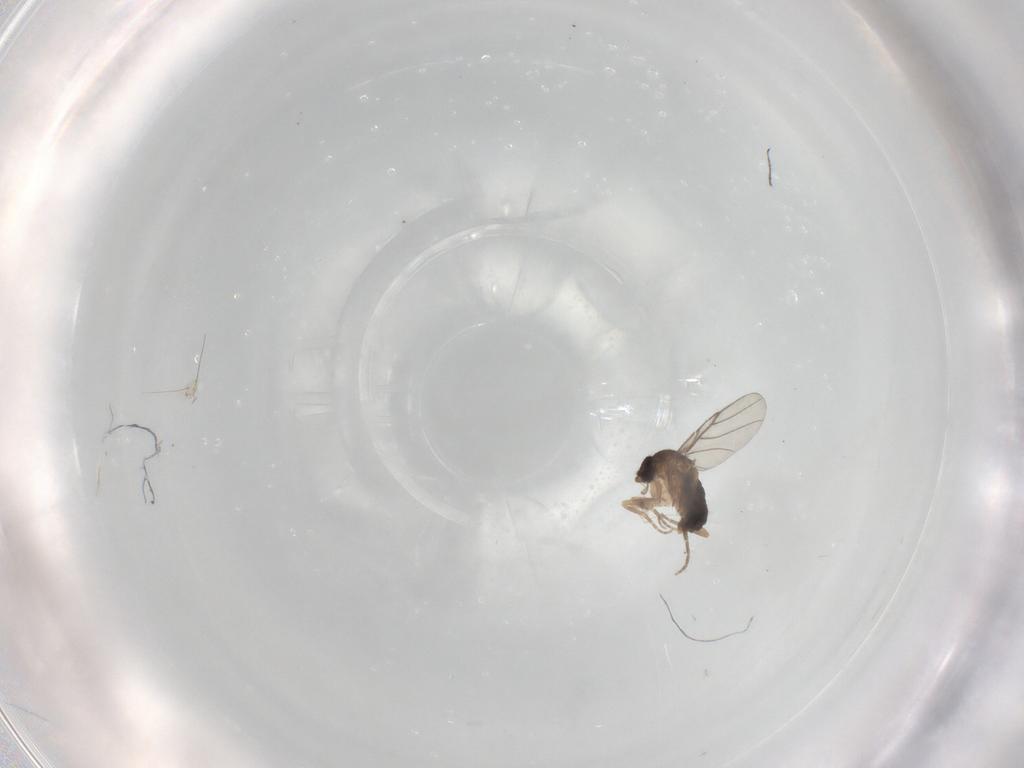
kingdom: Animalia
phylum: Arthropoda
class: Insecta
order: Diptera
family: Phoridae
